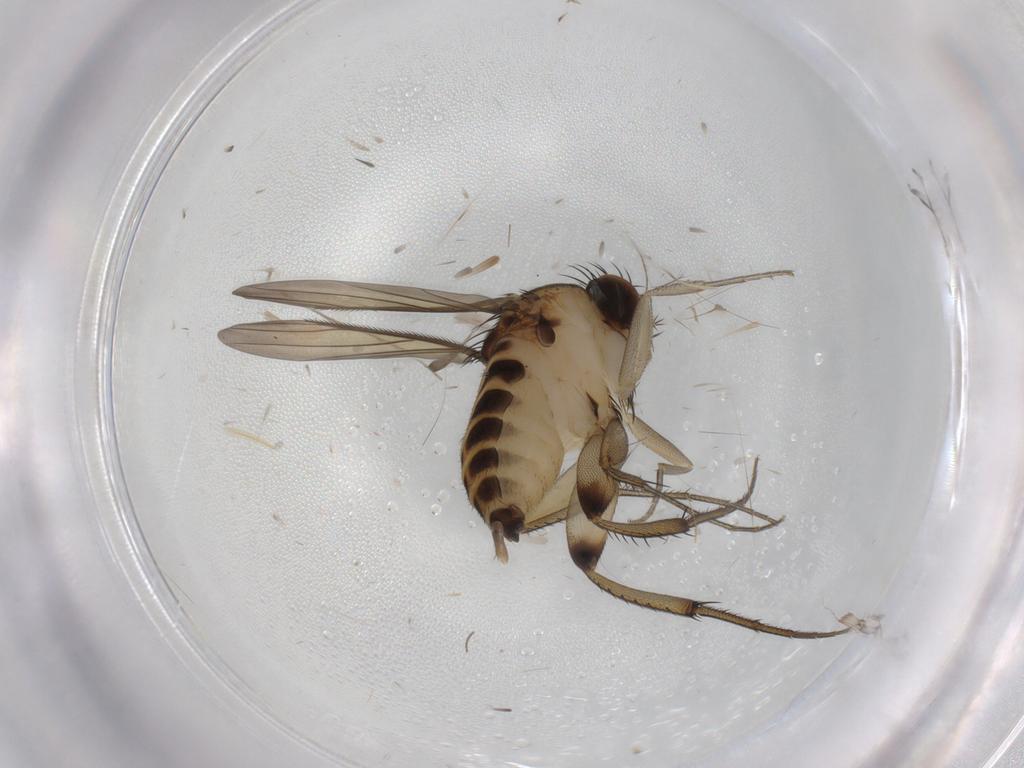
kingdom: Animalia
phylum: Arthropoda
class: Insecta
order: Diptera
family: Phoridae
